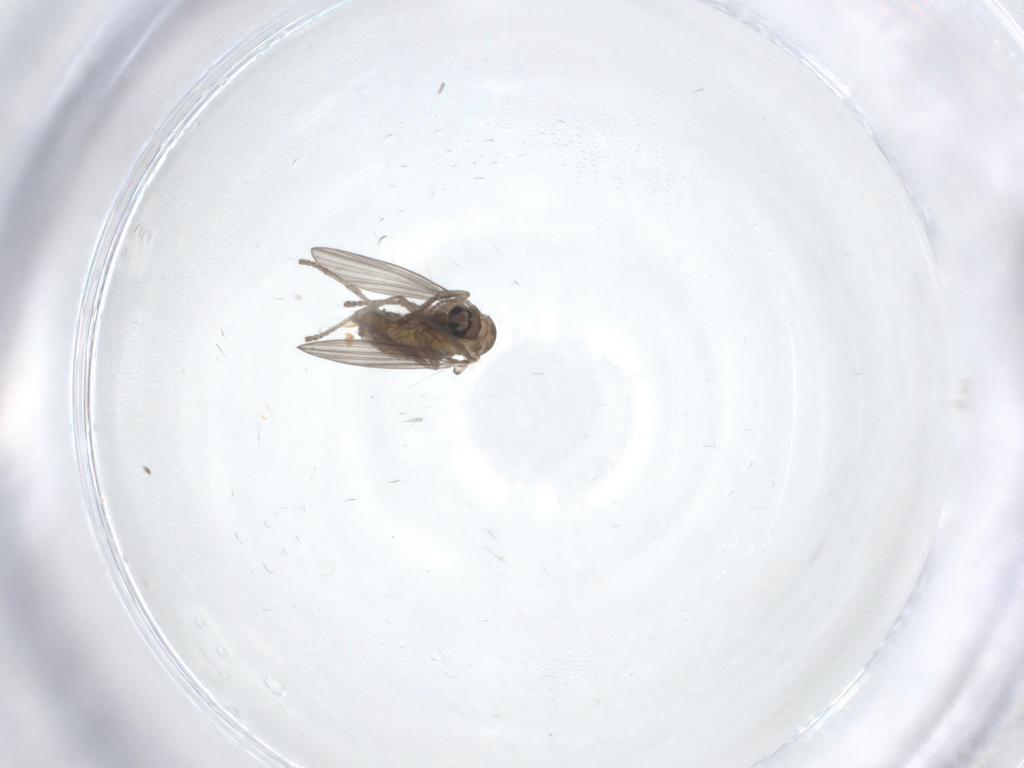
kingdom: Animalia
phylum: Arthropoda
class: Insecta
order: Diptera
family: Psychodidae
